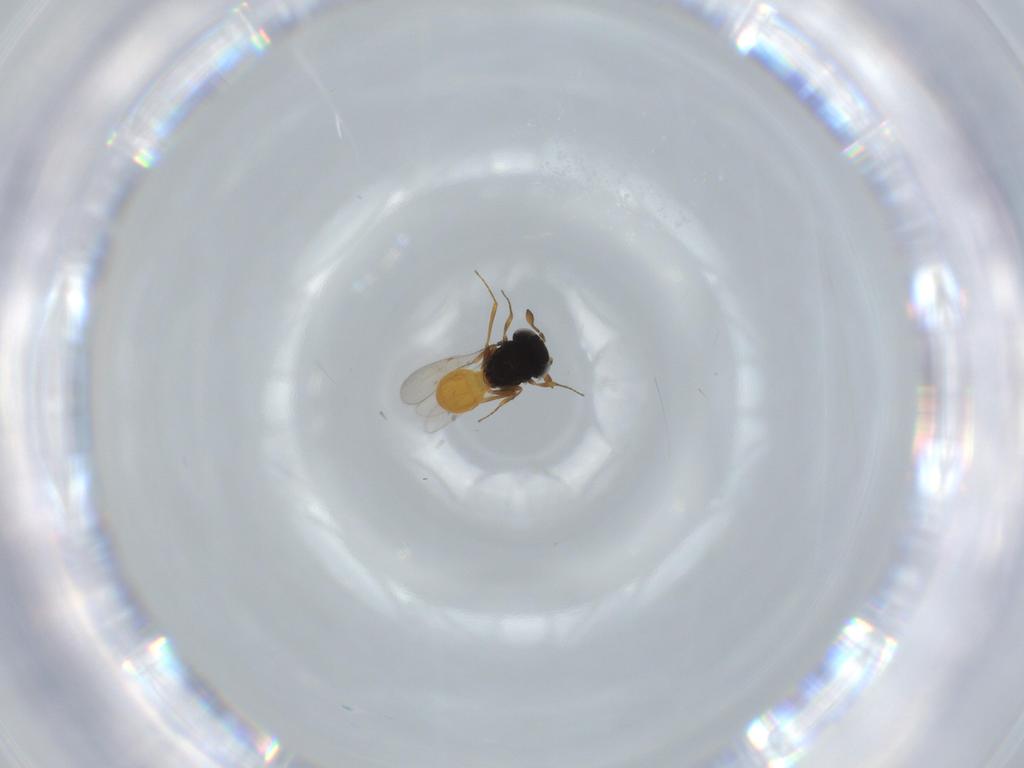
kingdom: Animalia
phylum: Arthropoda
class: Insecta
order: Hymenoptera
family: Scelionidae
